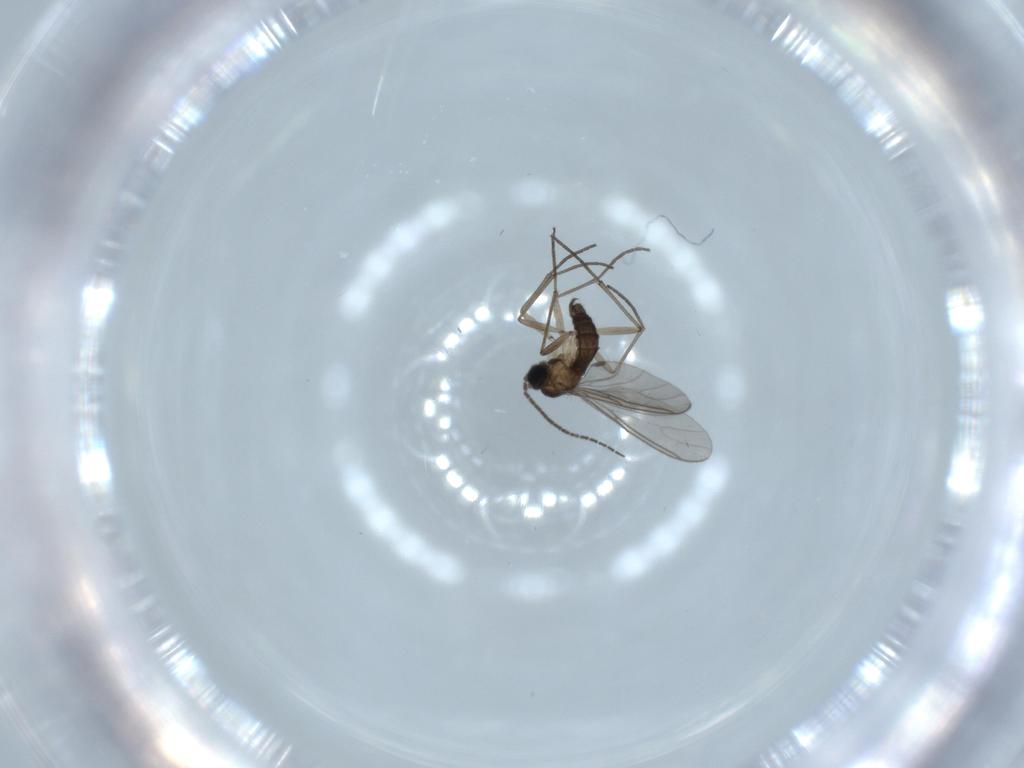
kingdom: Animalia
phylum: Arthropoda
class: Insecta
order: Diptera
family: Sciaridae
